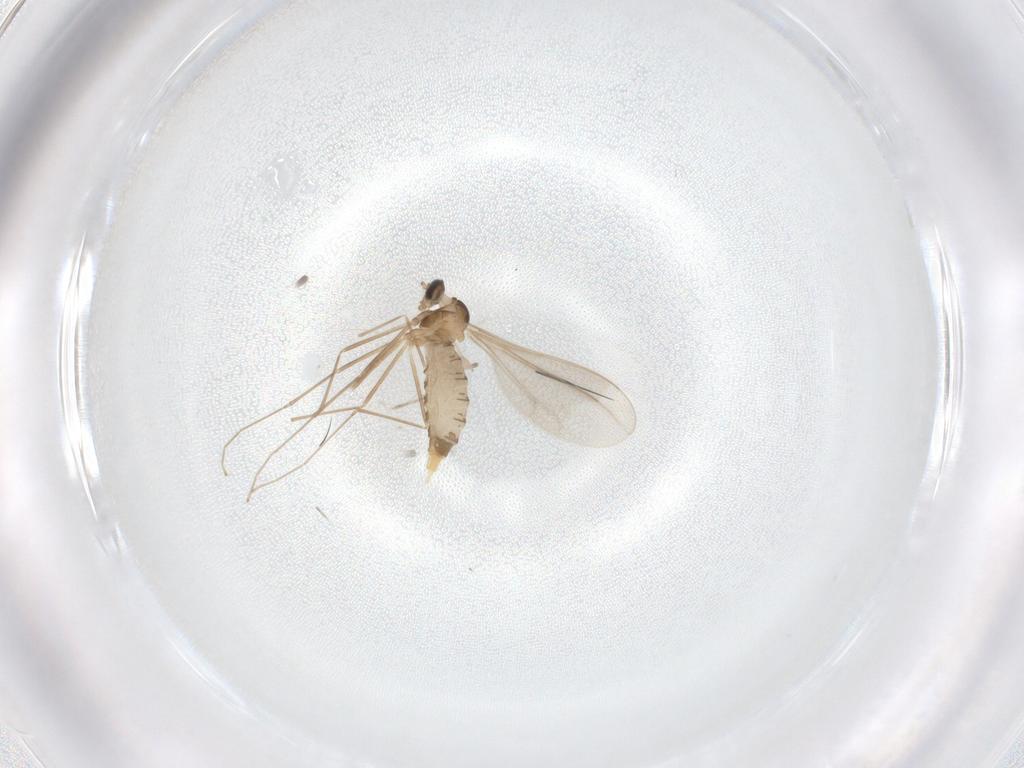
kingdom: Animalia
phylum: Arthropoda
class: Insecta
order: Diptera
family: Cecidomyiidae
